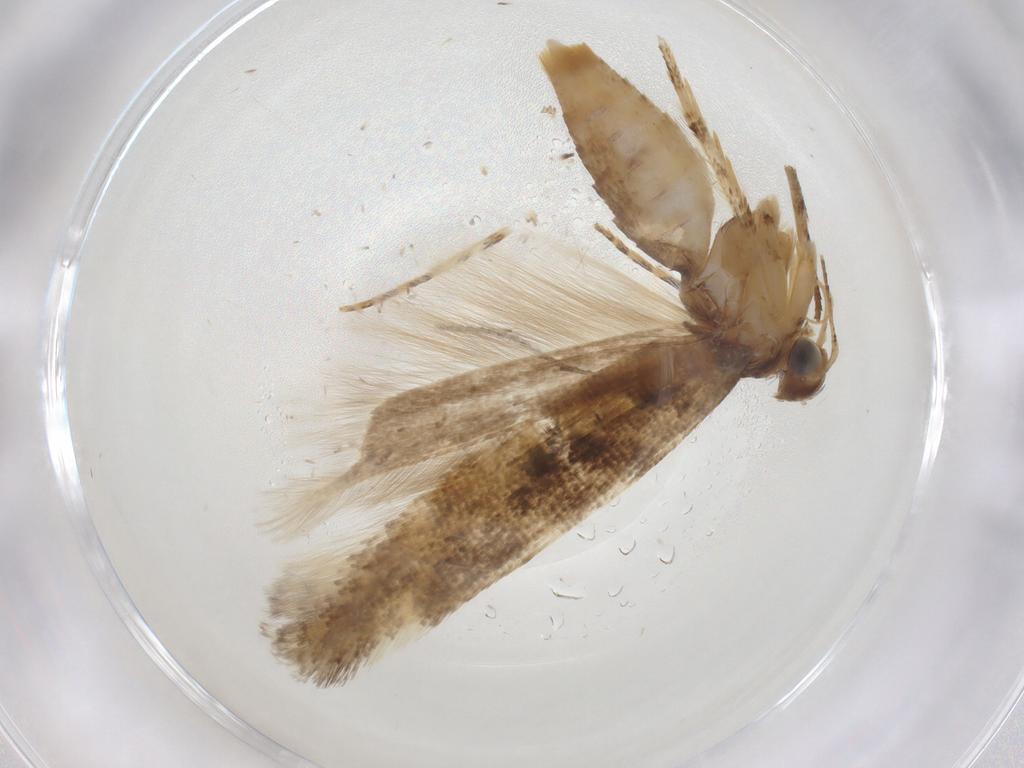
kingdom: Animalia
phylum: Arthropoda
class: Insecta
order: Lepidoptera
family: Gelechiidae
